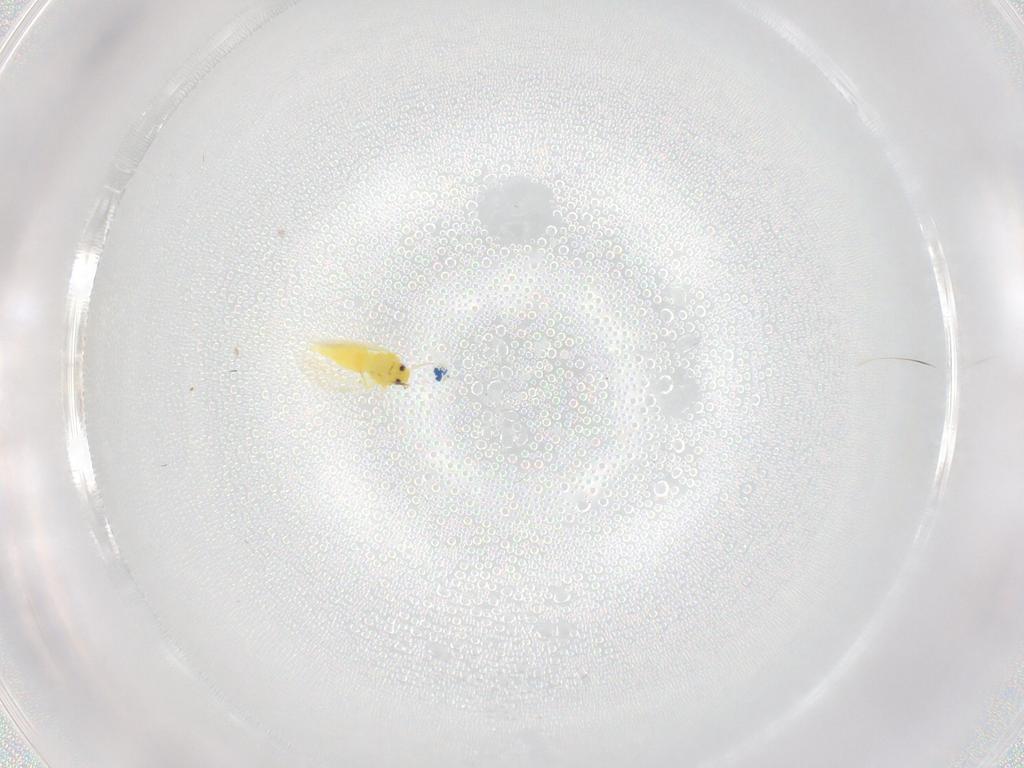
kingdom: Animalia
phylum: Arthropoda
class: Insecta
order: Hemiptera
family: Aleyrodidae
